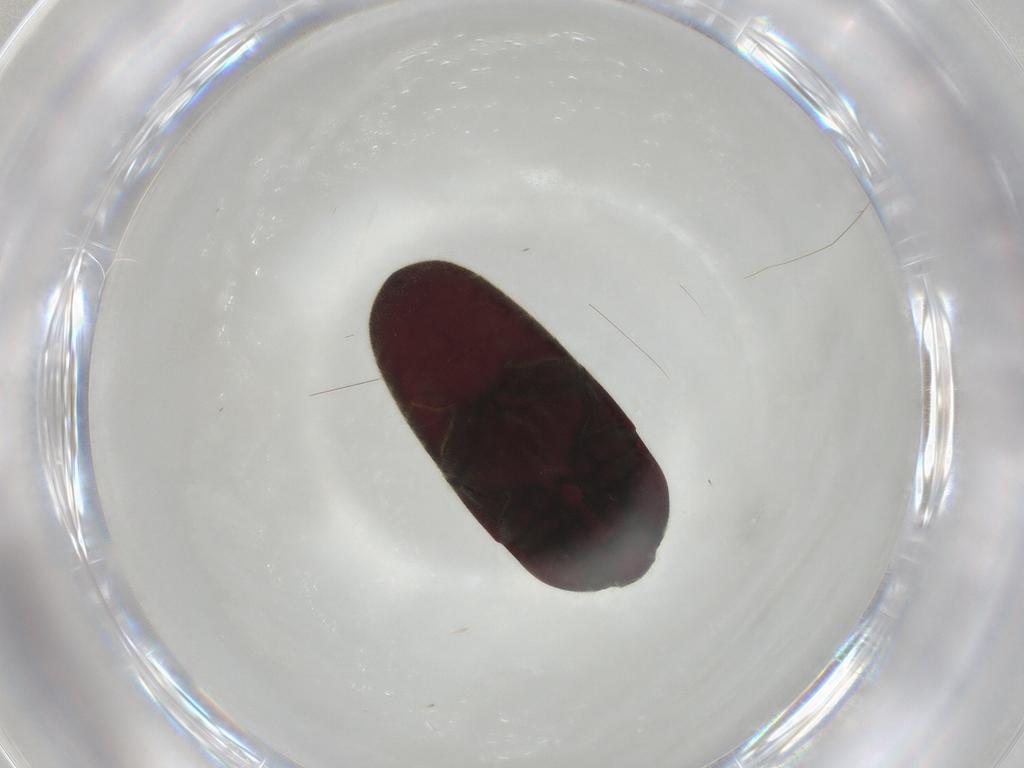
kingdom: Animalia
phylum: Arthropoda
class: Insecta
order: Coleoptera
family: Throscidae
